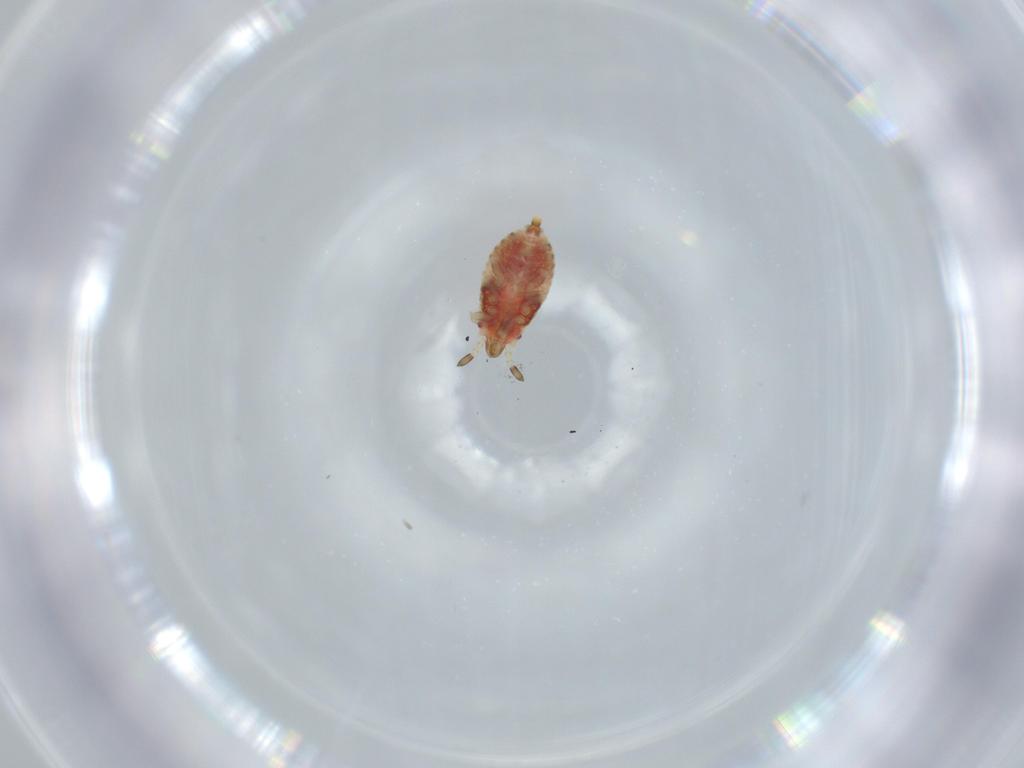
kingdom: Animalia
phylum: Arthropoda
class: Insecta
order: Hemiptera
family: Aradidae
